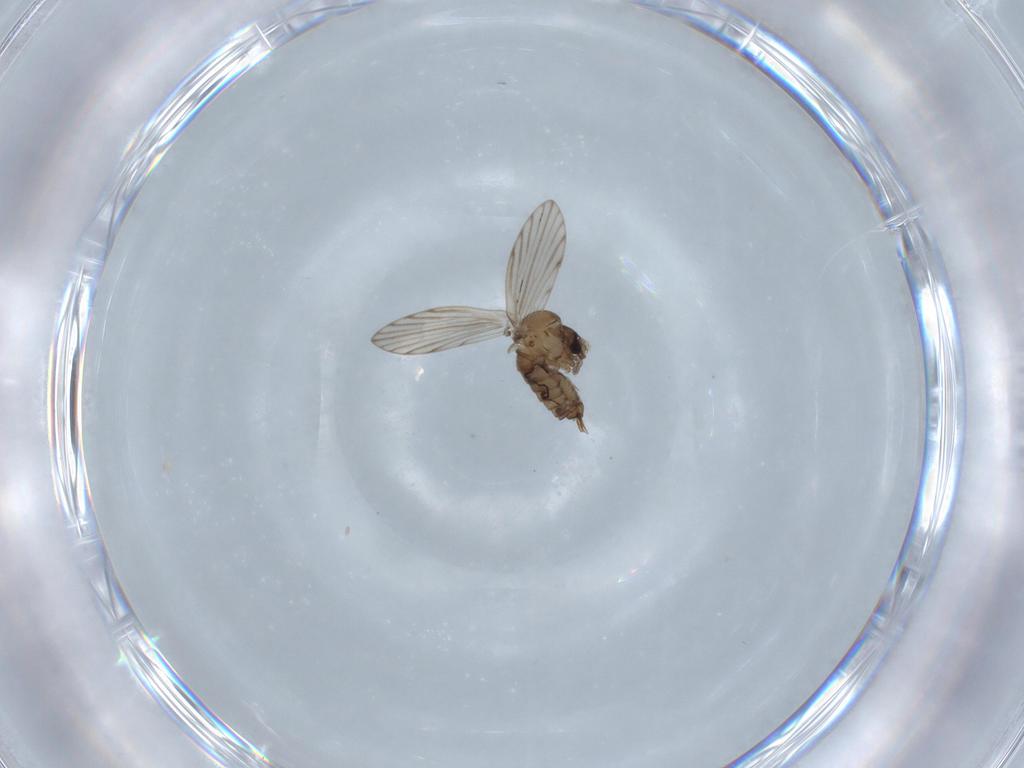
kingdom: Animalia
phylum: Arthropoda
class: Insecta
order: Diptera
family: Psychodidae
